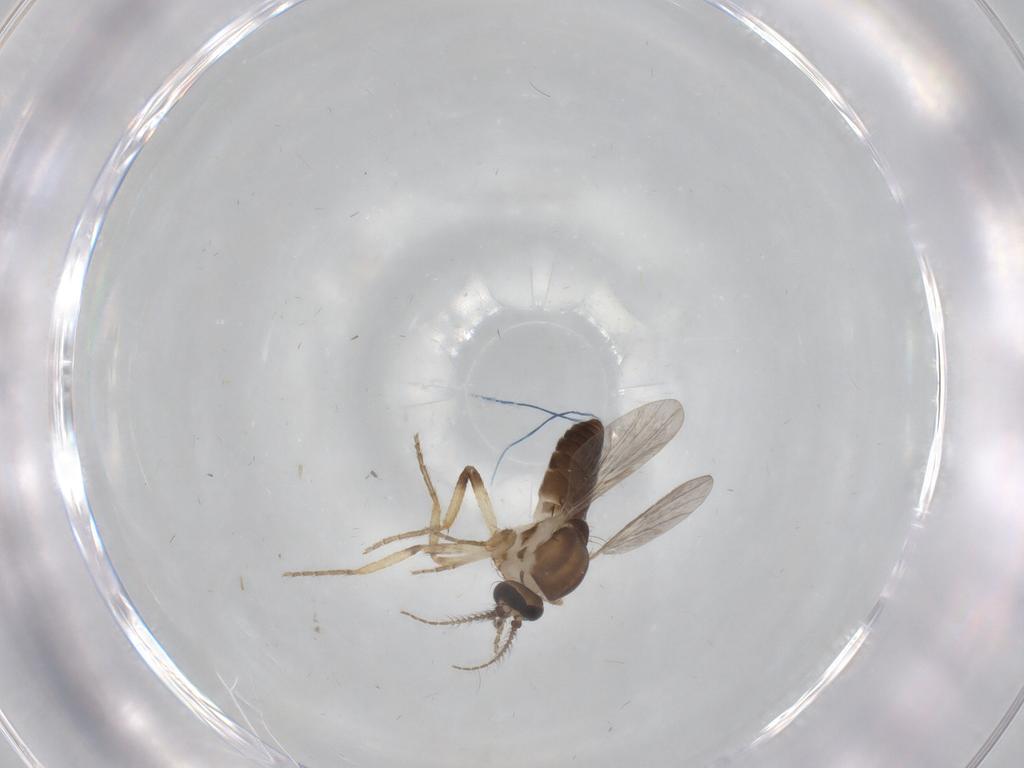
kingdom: Animalia
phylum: Arthropoda
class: Insecta
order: Diptera
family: Ceratopogonidae
